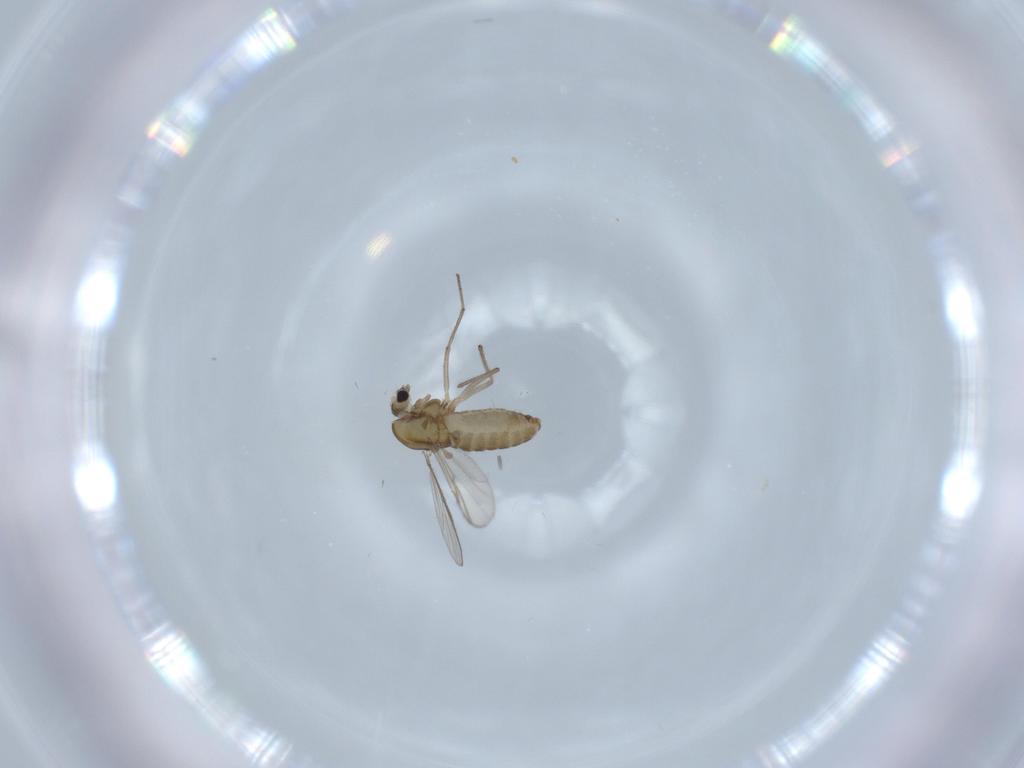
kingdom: Animalia
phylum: Arthropoda
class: Insecta
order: Diptera
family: Chironomidae
